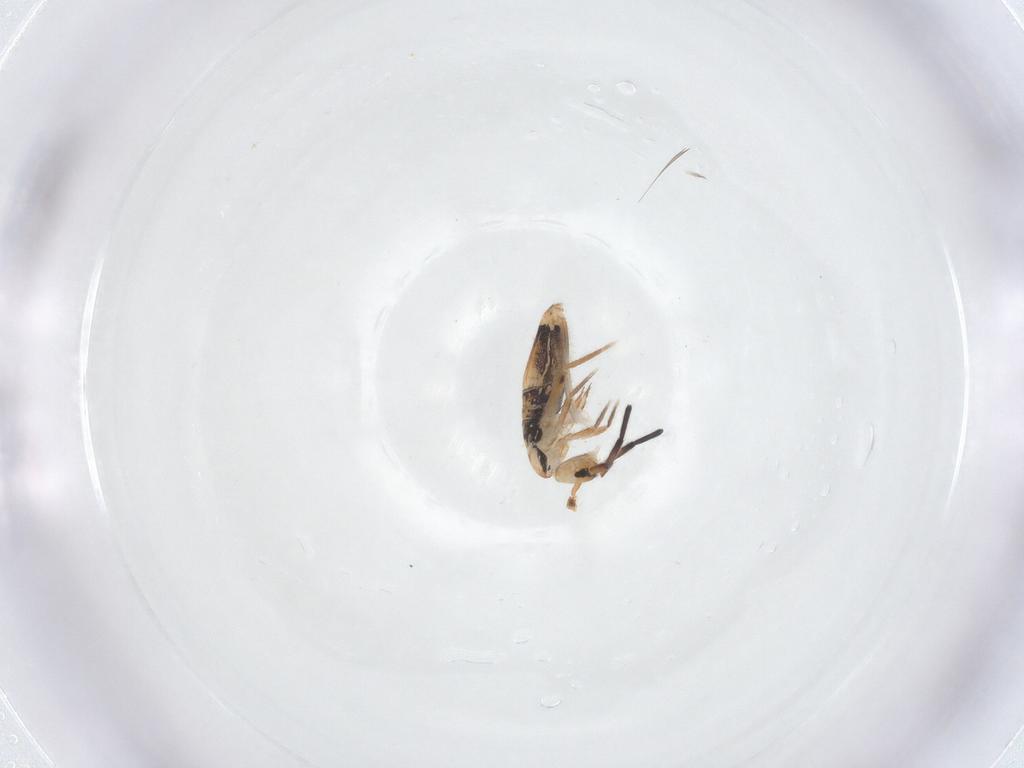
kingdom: Animalia
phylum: Arthropoda
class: Collembola
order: Entomobryomorpha
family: Entomobryidae
